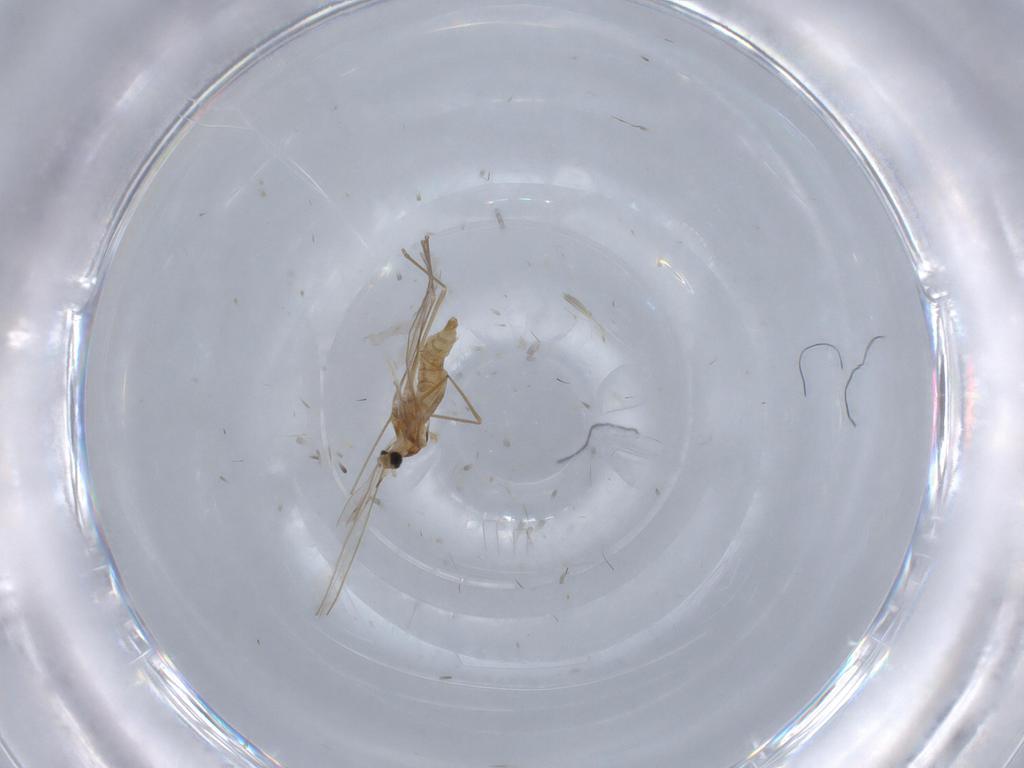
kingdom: Animalia
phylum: Arthropoda
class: Insecta
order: Diptera
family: Cecidomyiidae
